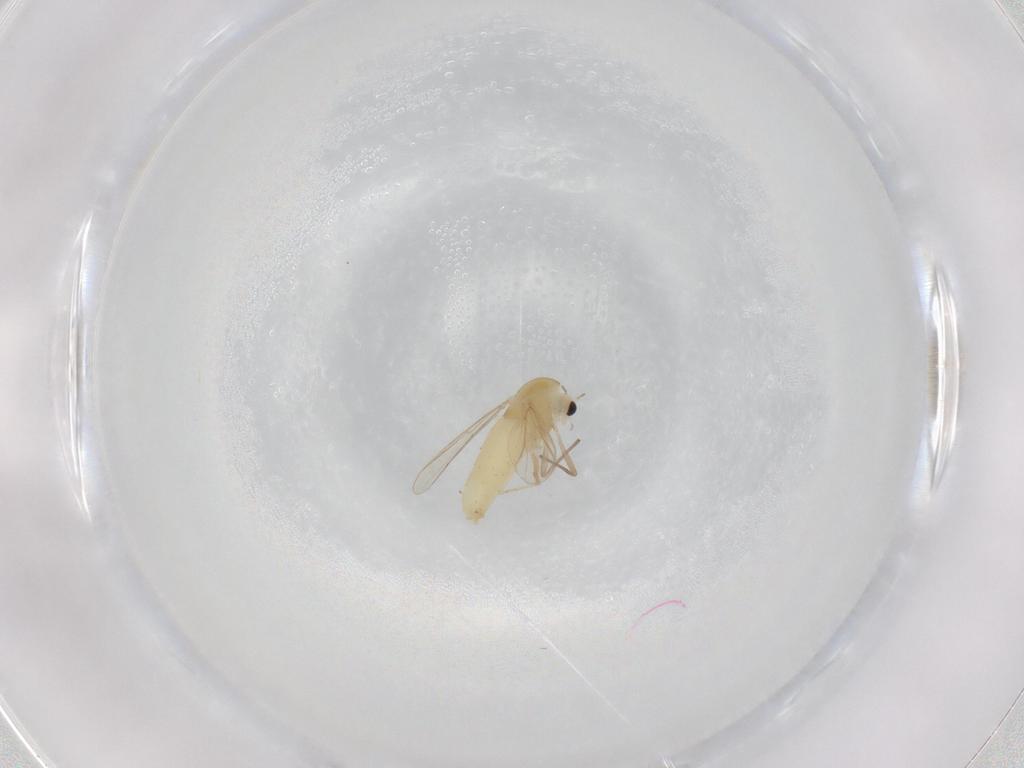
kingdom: Animalia
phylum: Arthropoda
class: Insecta
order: Diptera
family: Chironomidae
